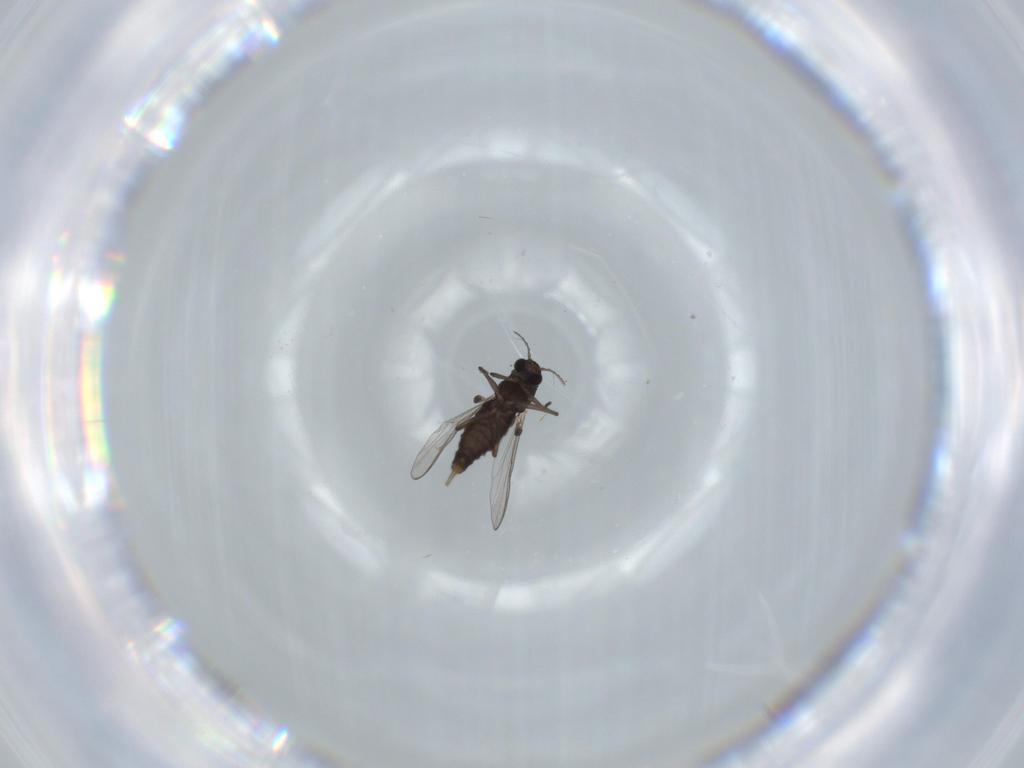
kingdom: Animalia
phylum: Arthropoda
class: Insecta
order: Diptera
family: Chironomidae
